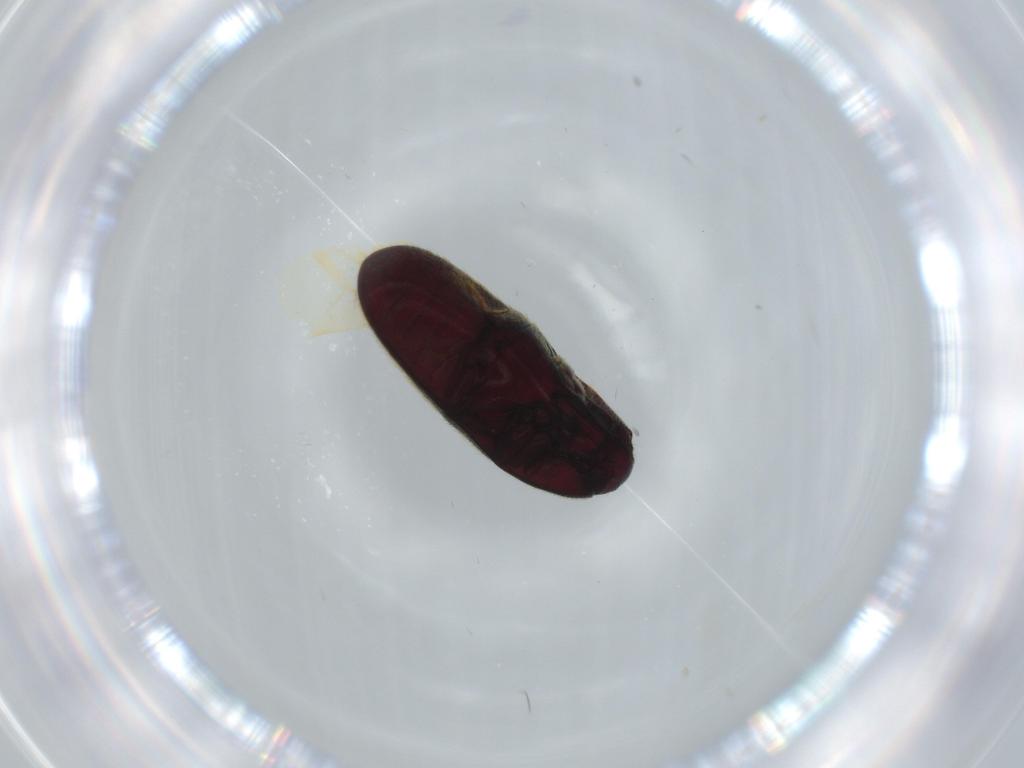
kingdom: Animalia
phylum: Arthropoda
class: Insecta
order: Coleoptera
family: Throscidae
